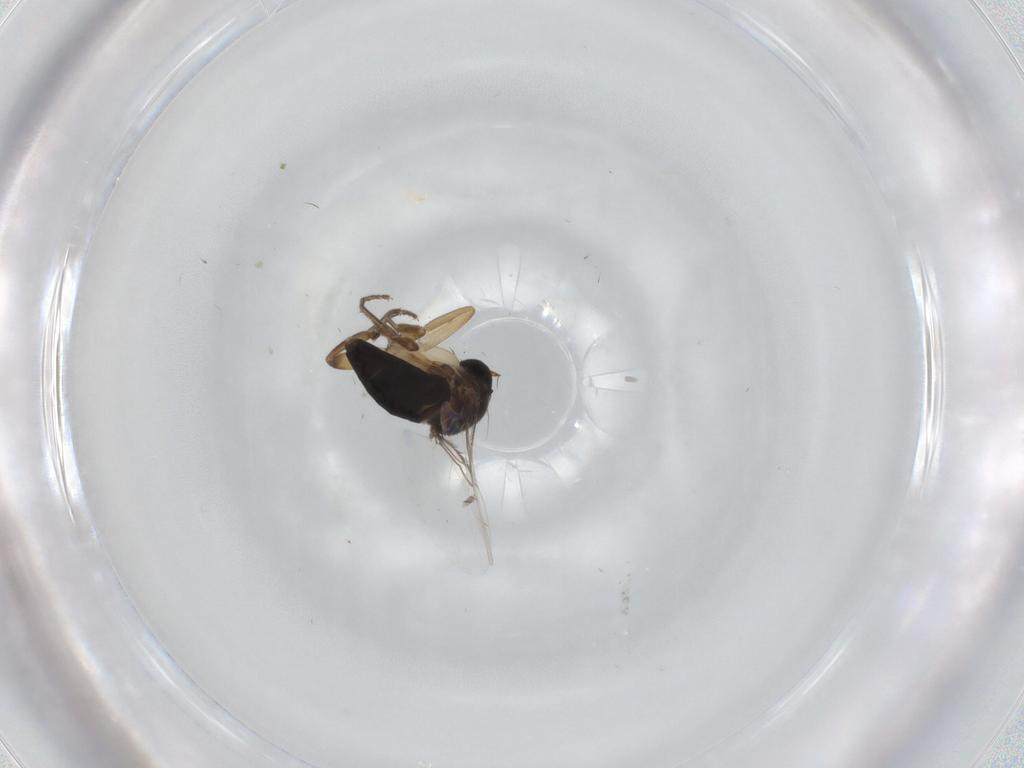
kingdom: Animalia
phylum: Arthropoda
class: Insecta
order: Diptera
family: Phoridae
